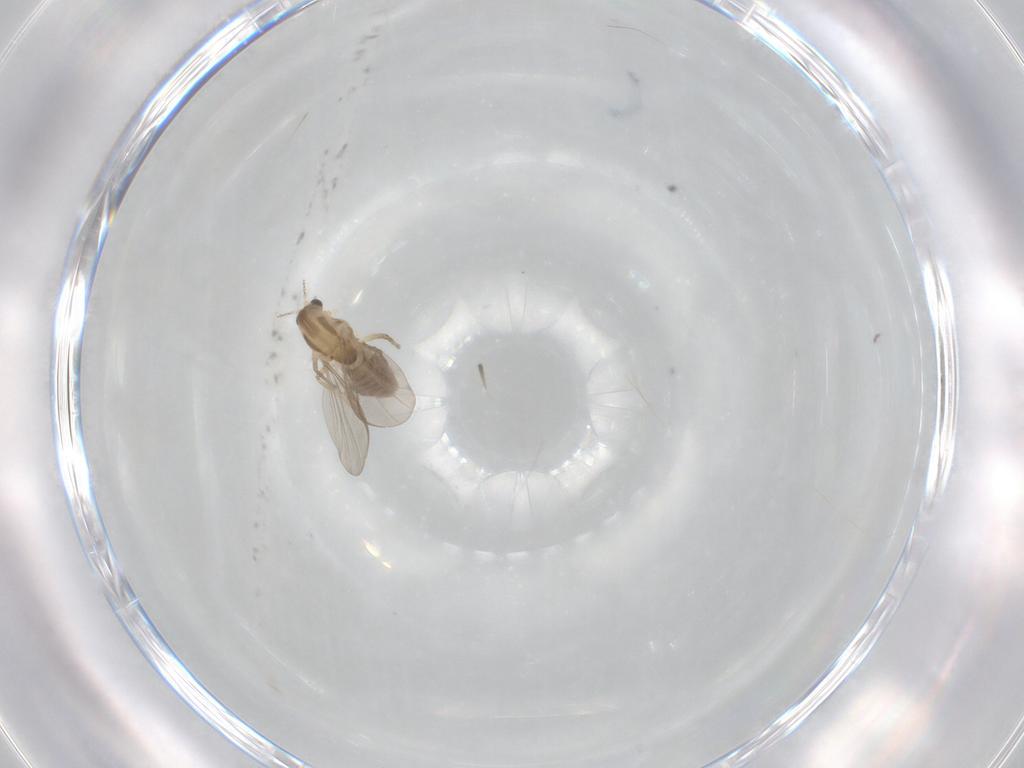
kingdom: Animalia
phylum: Arthropoda
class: Insecta
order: Diptera
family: Chironomidae
